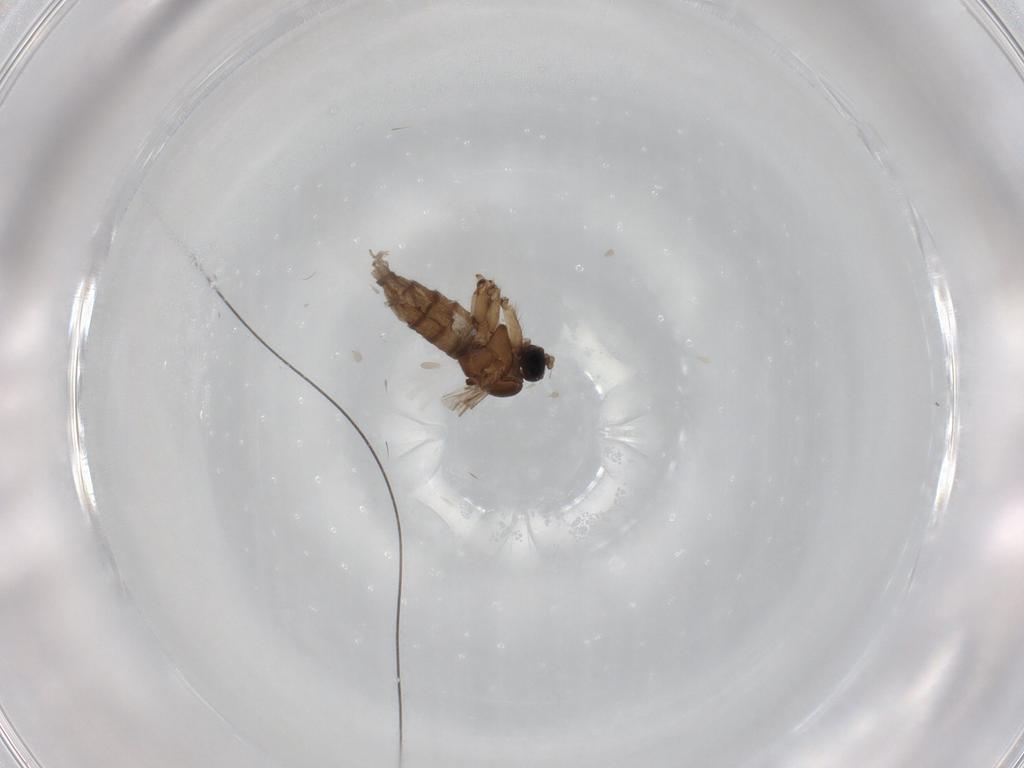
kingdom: Animalia
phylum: Arthropoda
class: Insecta
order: Diptera
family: Sciaridae
